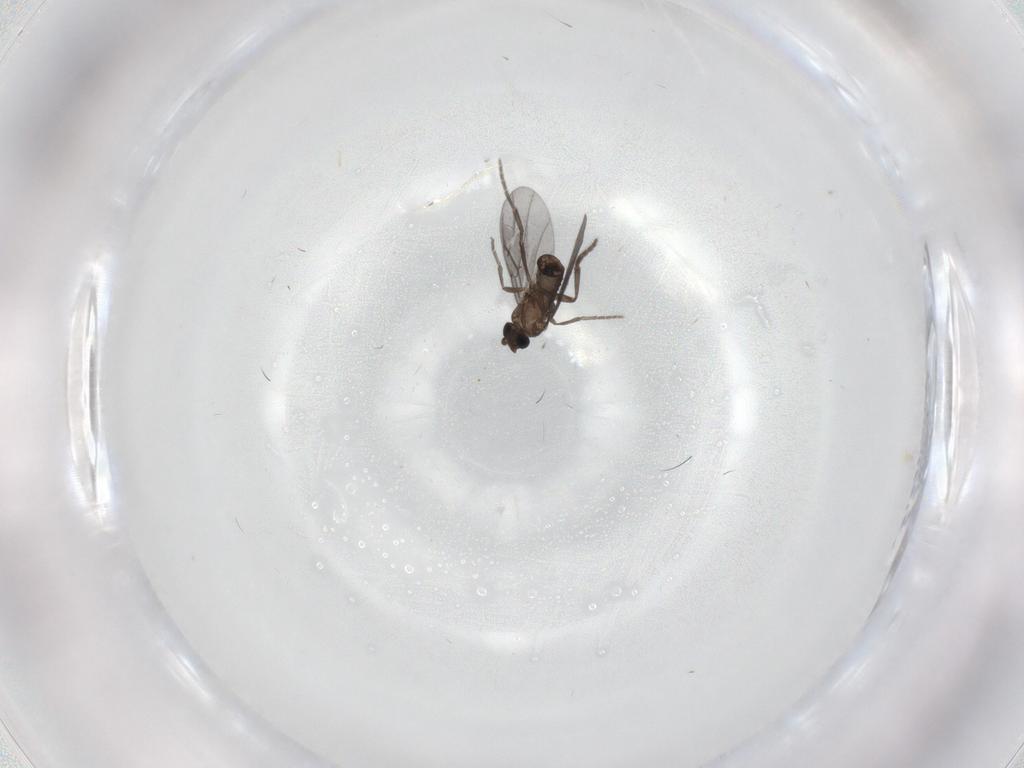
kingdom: Animalia
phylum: Arthropoda
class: Insecta
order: Diptera
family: Phoridae
